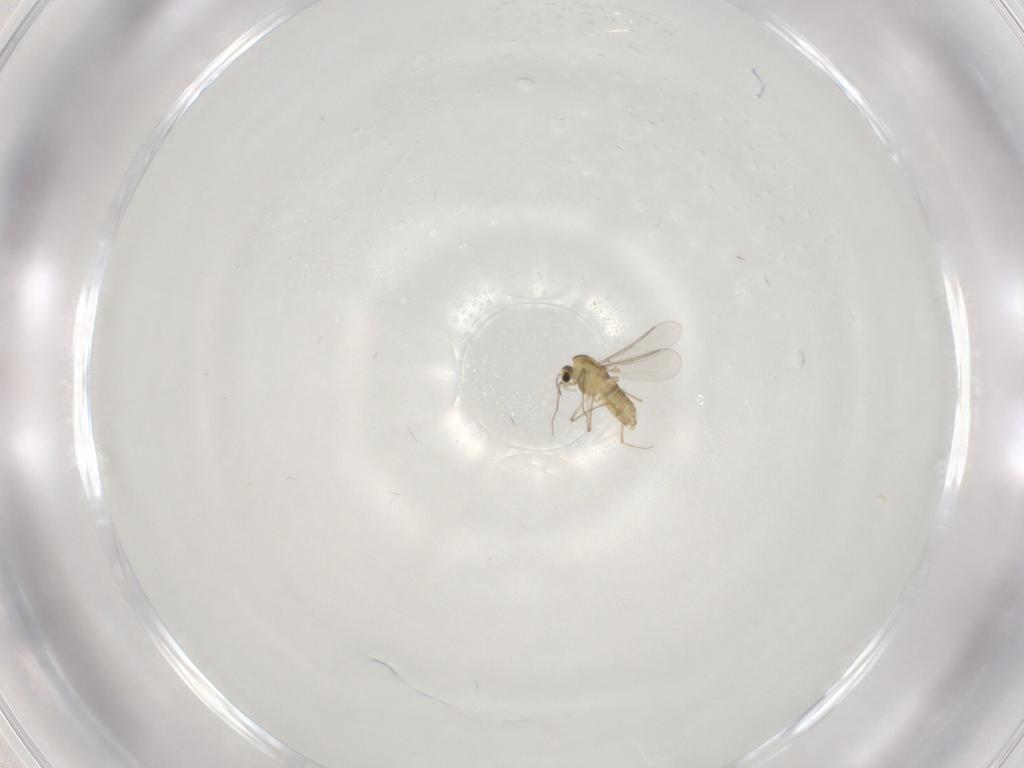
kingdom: Animalia
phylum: Arthropoda
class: Insecta
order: Diptera
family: Chironomidae
